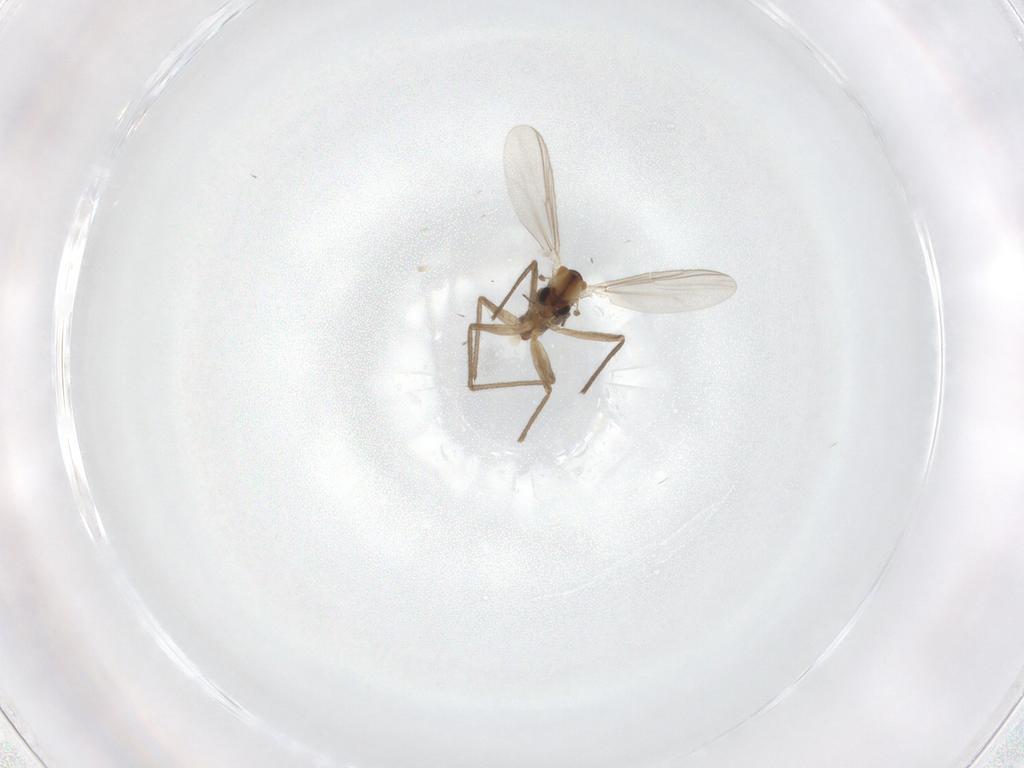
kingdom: Animalia
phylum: Arthropoda
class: Insecta
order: Diptera
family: Chironomidae
